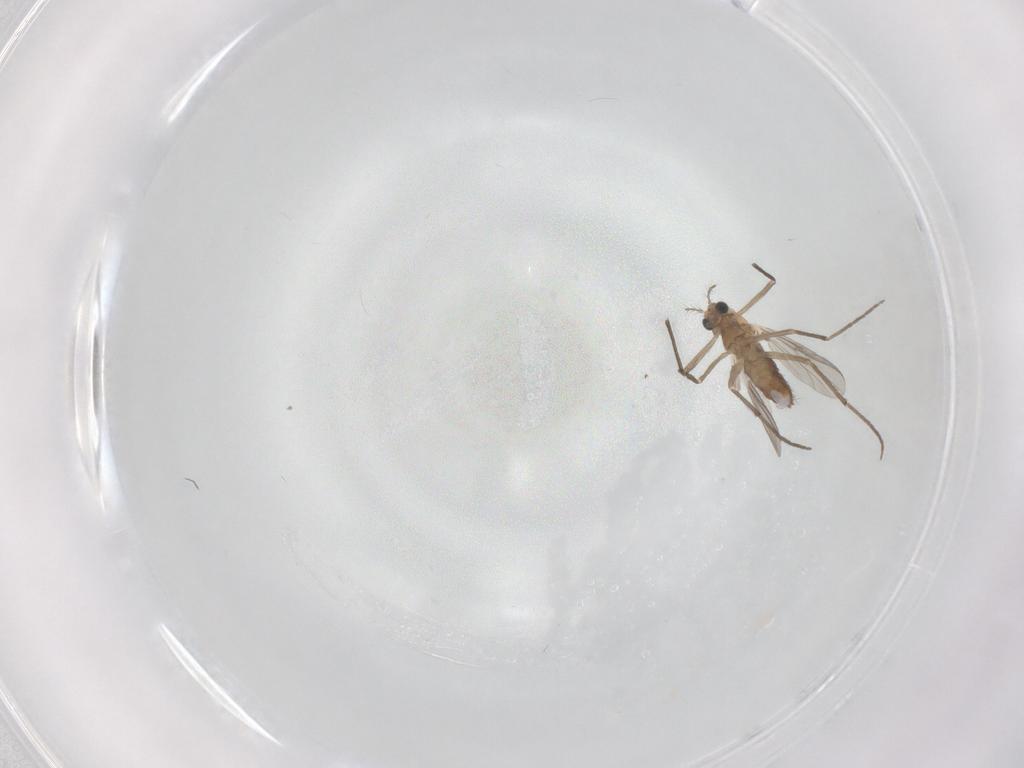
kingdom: Animalia
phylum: Arthropoda
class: Insecta
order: Diptera
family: Chironomidae
